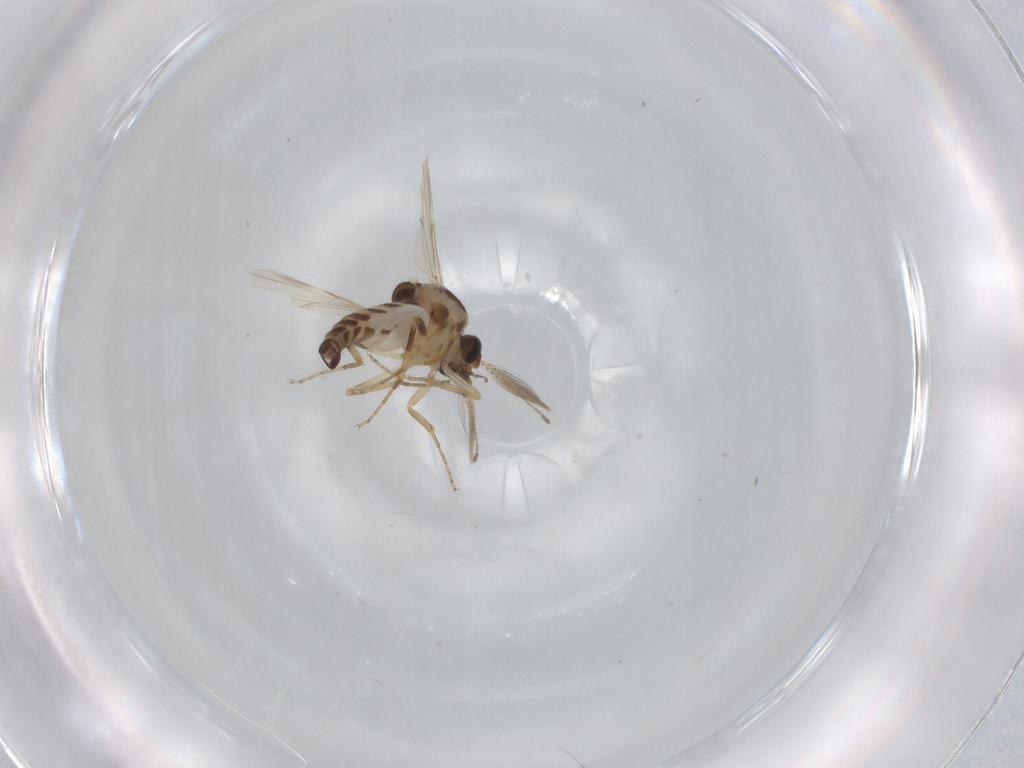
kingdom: Animalia
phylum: Arthropoda
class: Insecta
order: Diptera
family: Ceratopogonidae
